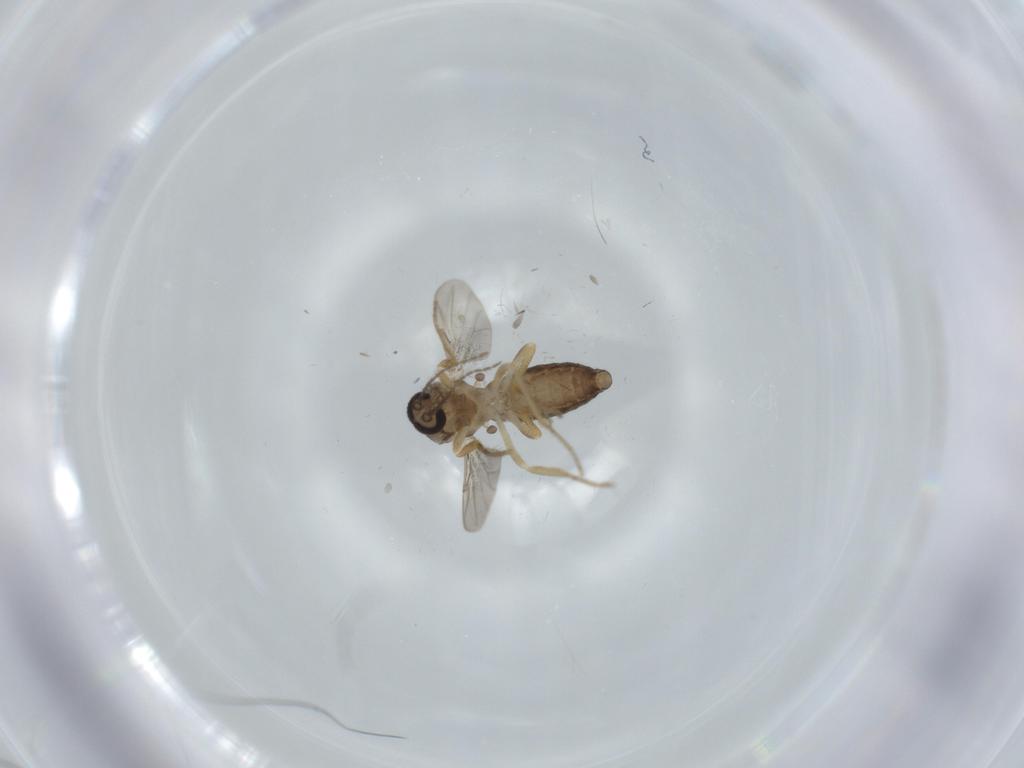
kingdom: Animalia
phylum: Arthropoda
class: Insecta
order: Diptera
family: Ceratopogonidae
